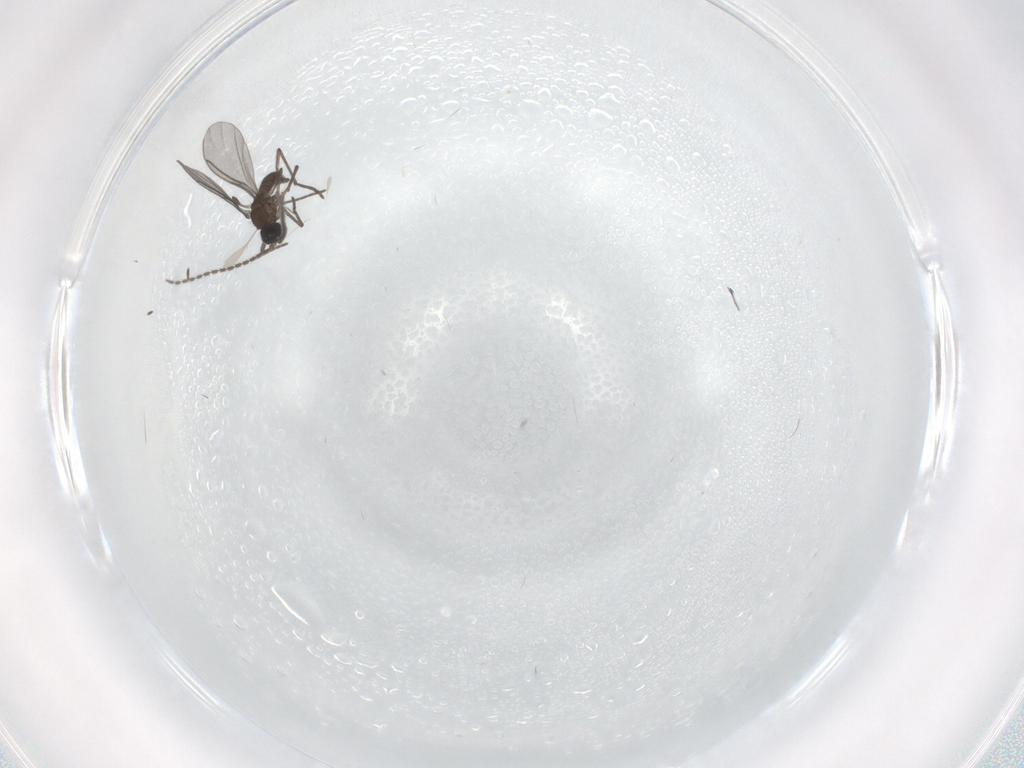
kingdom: Animalia
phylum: Arthropoda
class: Insecta
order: Diptera
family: Sciaridae
